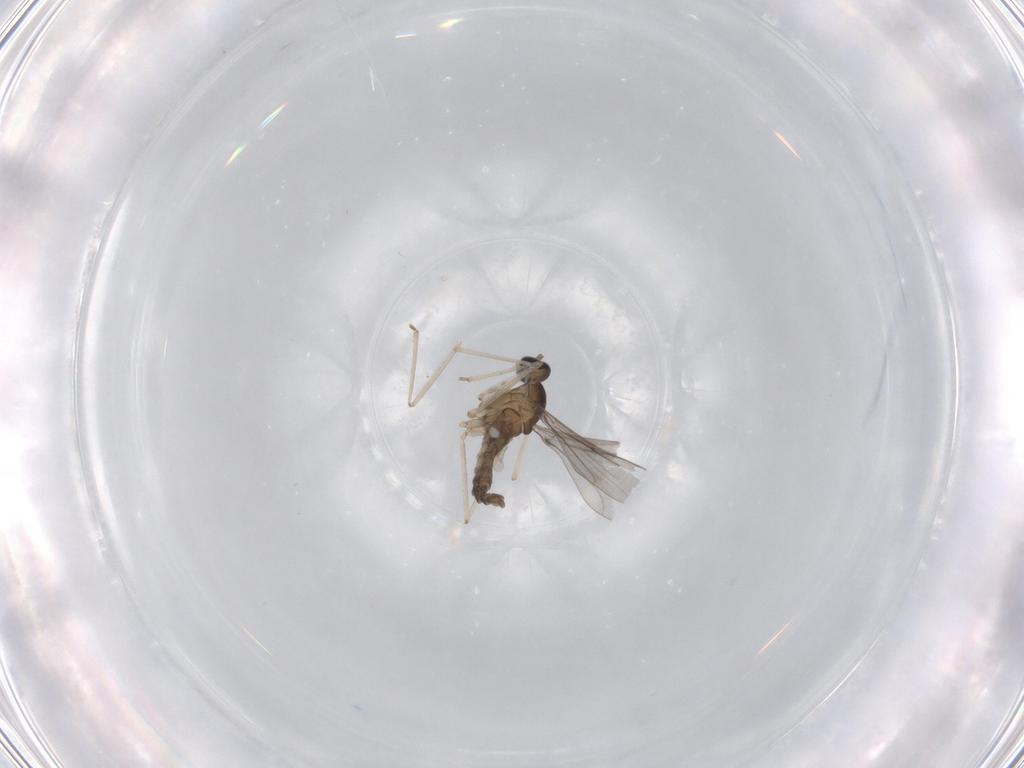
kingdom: Animalia
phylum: Arthropoda
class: Insecta
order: Diptera
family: Cecidomyiidae
